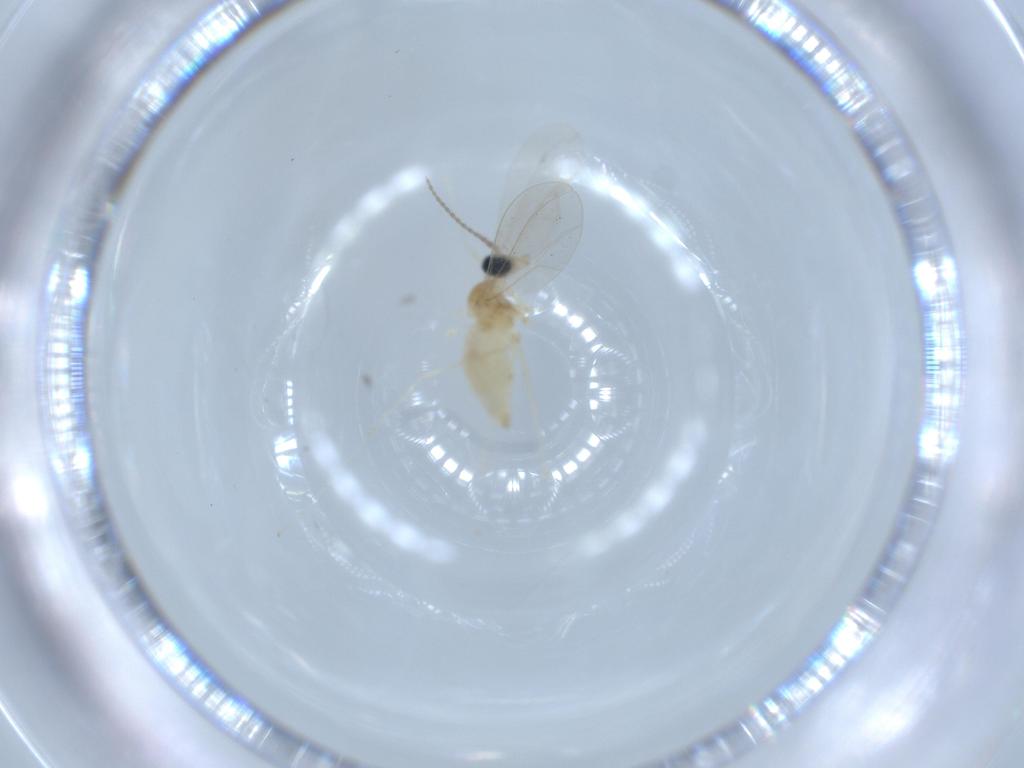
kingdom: Animalia
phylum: Arthropoda
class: Insecta
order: Diptera
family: Cecidomyiidae
